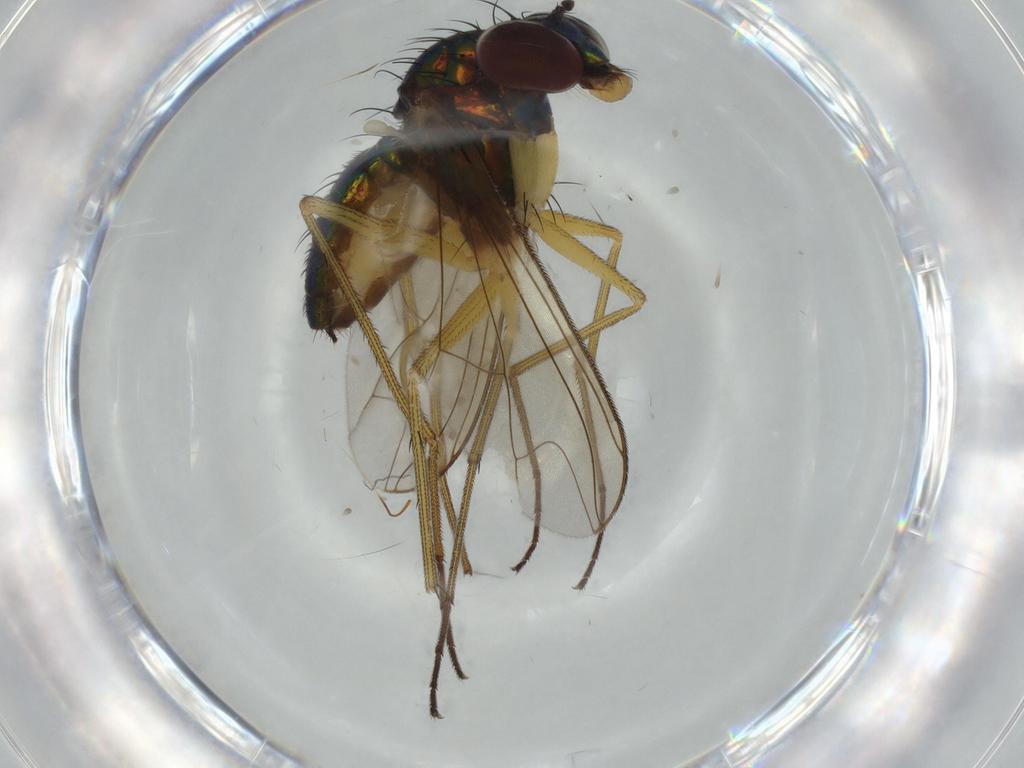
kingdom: Animalia
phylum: Arthropoda
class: Insecta
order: Diptera
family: Dolichopodidae
